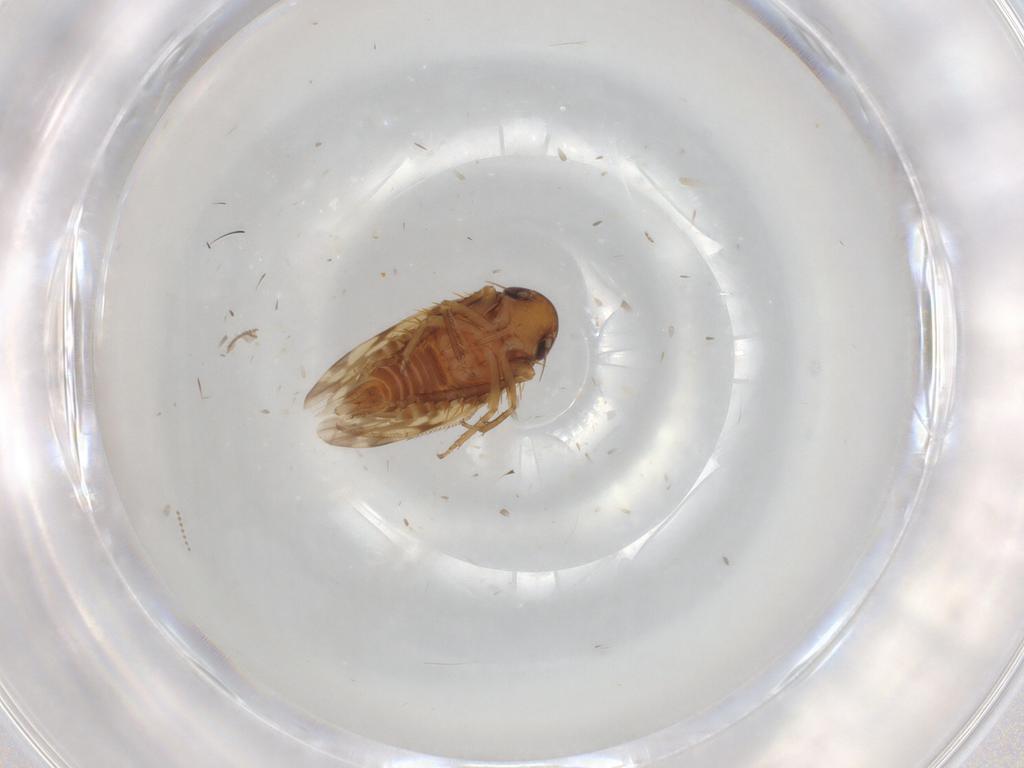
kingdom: Animalia
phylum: Arthropoda
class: Insecta
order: Hemiptera
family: Cicadellidae
